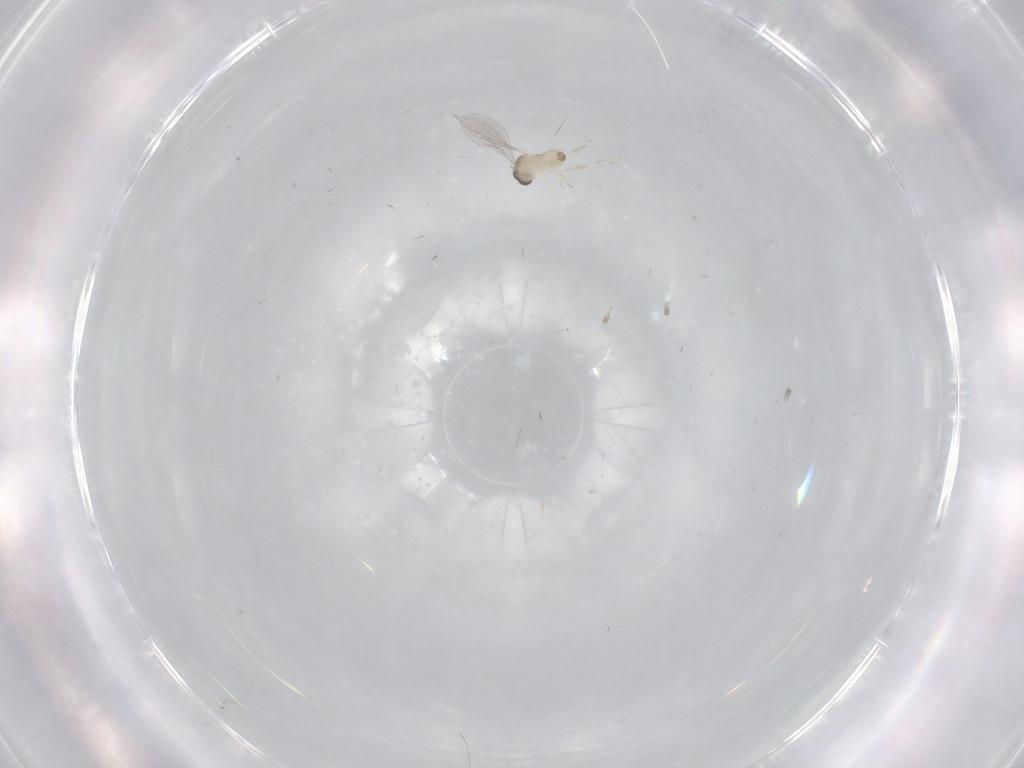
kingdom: Animalia
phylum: Arthropoda
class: Insecta
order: Diptera
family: Cecidomyiidae
